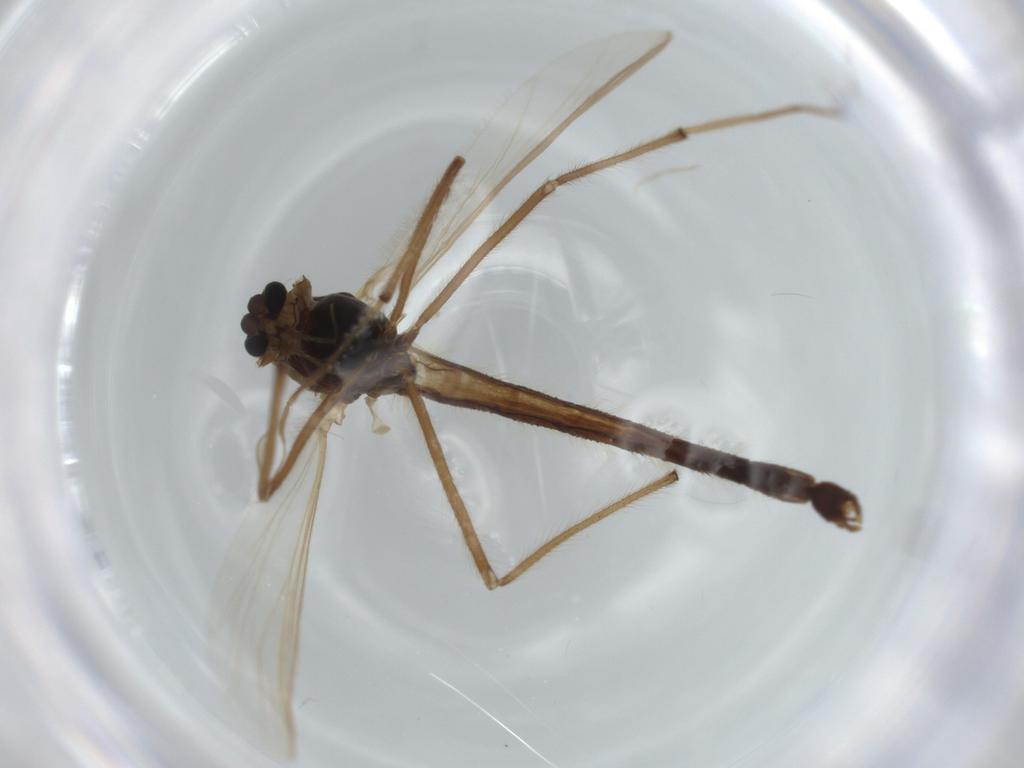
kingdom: Animalia
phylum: Arthropoda
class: Insecta
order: Diptera
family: Chironomidae
